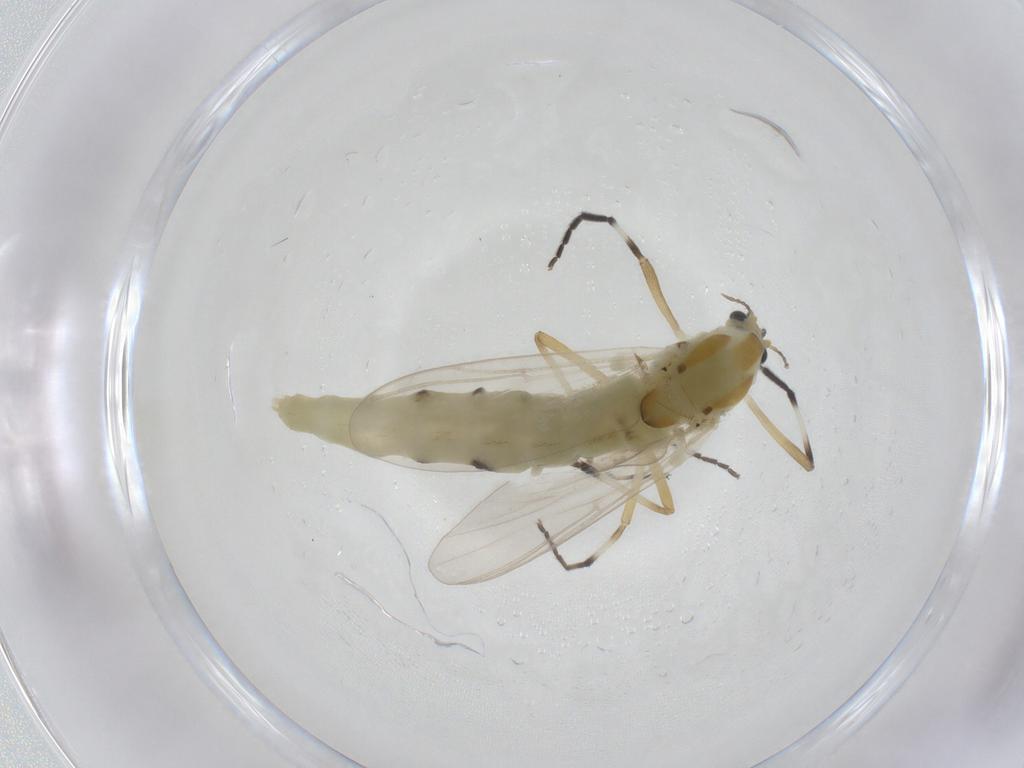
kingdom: Animalia
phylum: Arthropoda
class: Insecta
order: Diptera
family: Chironomidae
